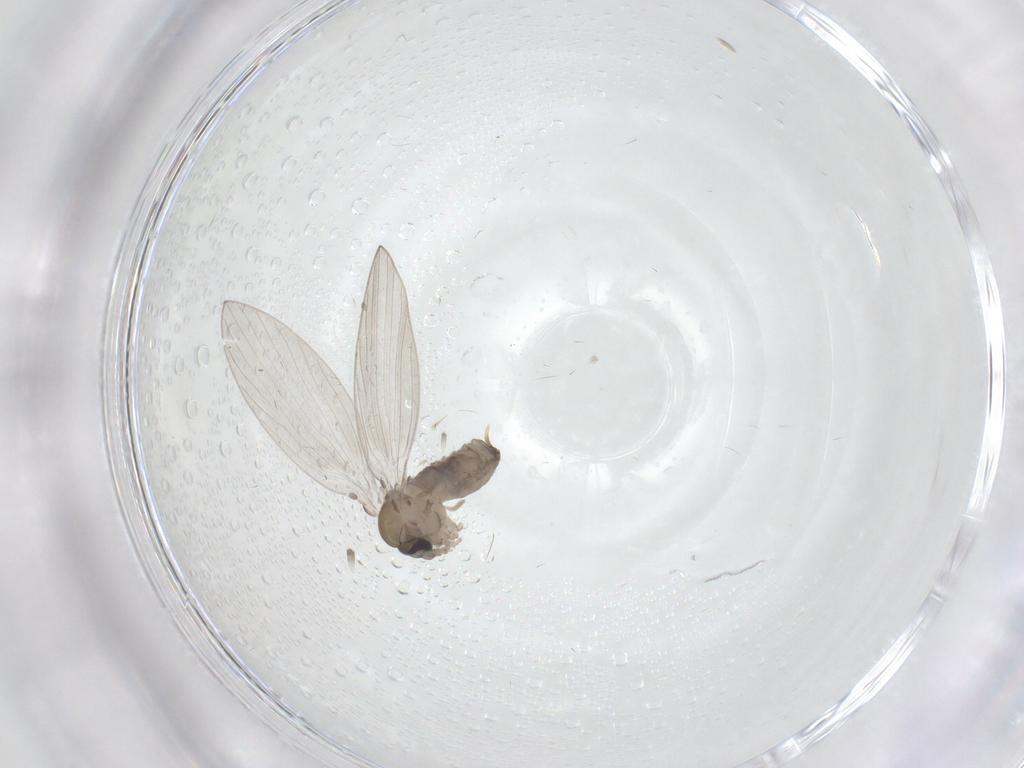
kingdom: Animalia
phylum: Arthropoda
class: Insecta
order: Diptera
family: Psychodidae
